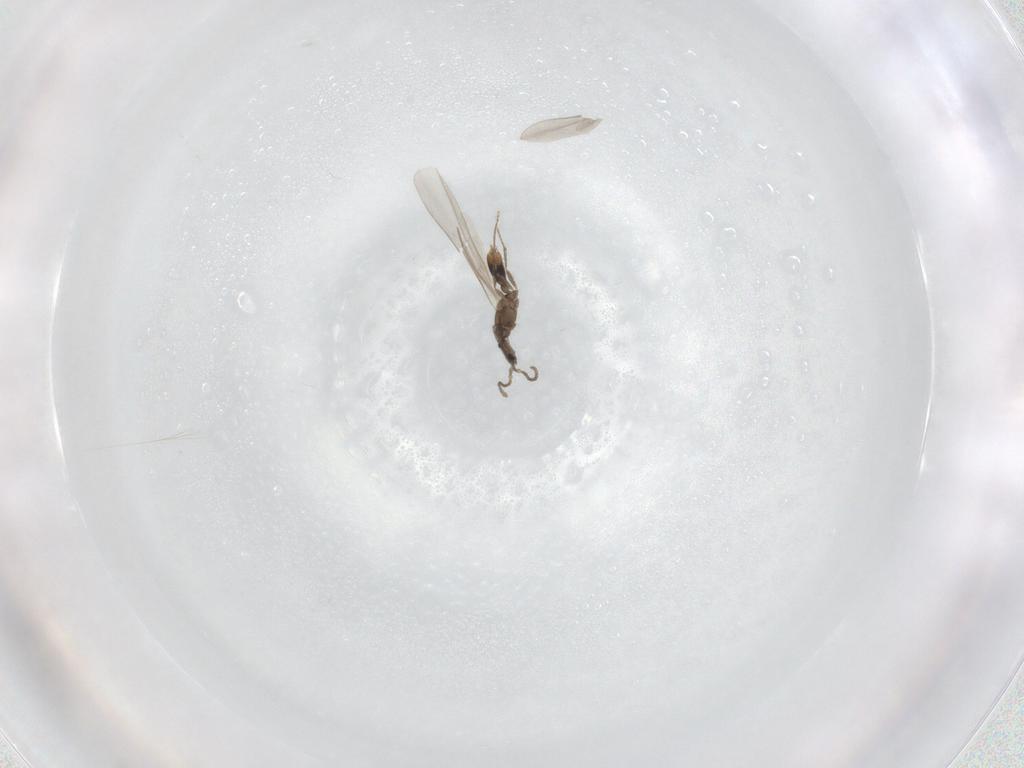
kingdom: Animalia
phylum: Arthropoda
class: Insecta
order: Hymenoptera
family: Formicidae
